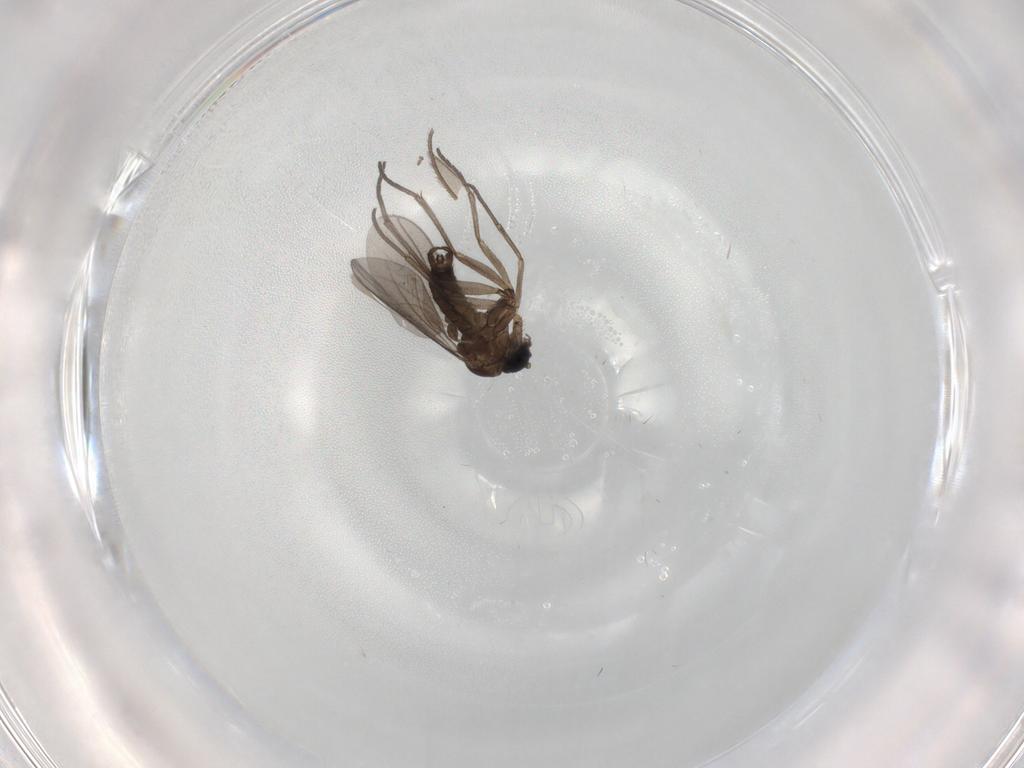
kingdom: Animalia
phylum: Arthropoda
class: Insecta
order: Diptera
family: Sciaridae
